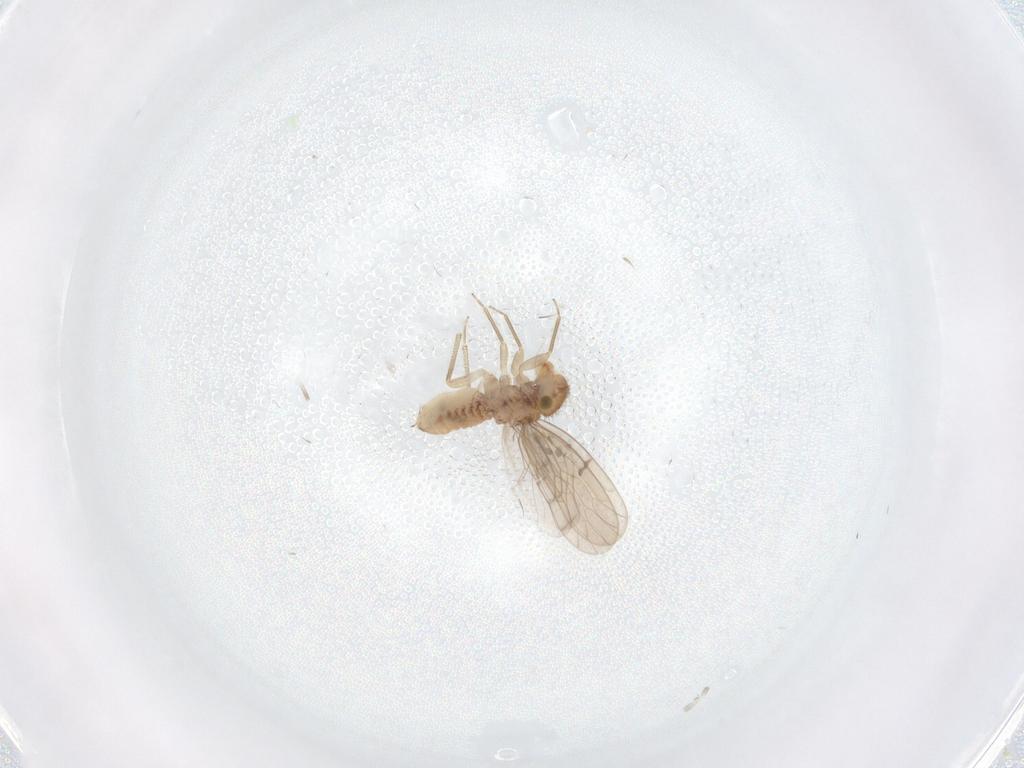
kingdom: Animalia
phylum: Arthropoda
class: Insecta
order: Psocodea
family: Ectopsocidae
